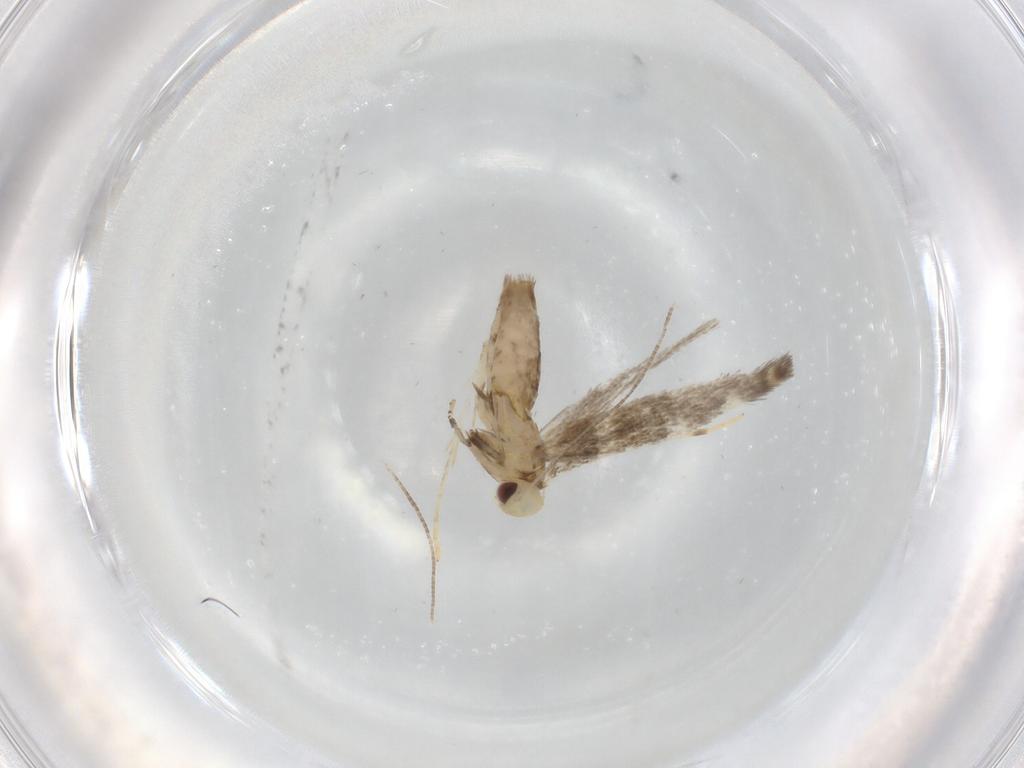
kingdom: Animalia
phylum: Arthropoda
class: Insecta
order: Lepidoptera
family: Gracillariidae
